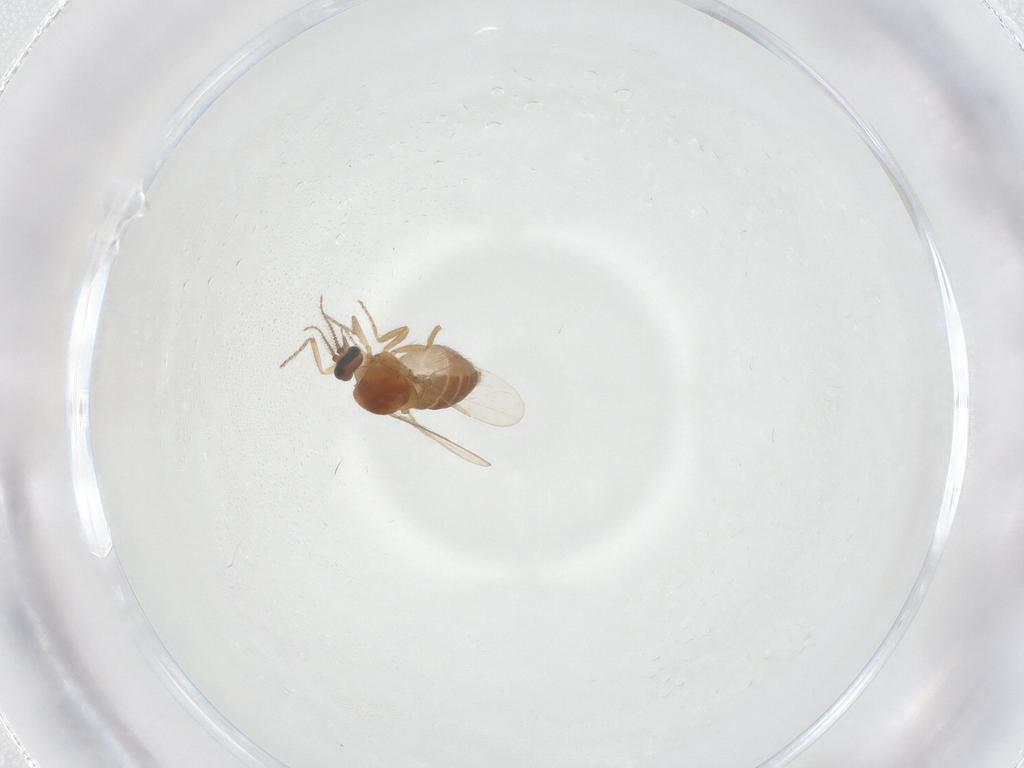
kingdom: Animalia
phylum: Arthropoda
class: Insecta
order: Diptera
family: Ceratopogonidae
